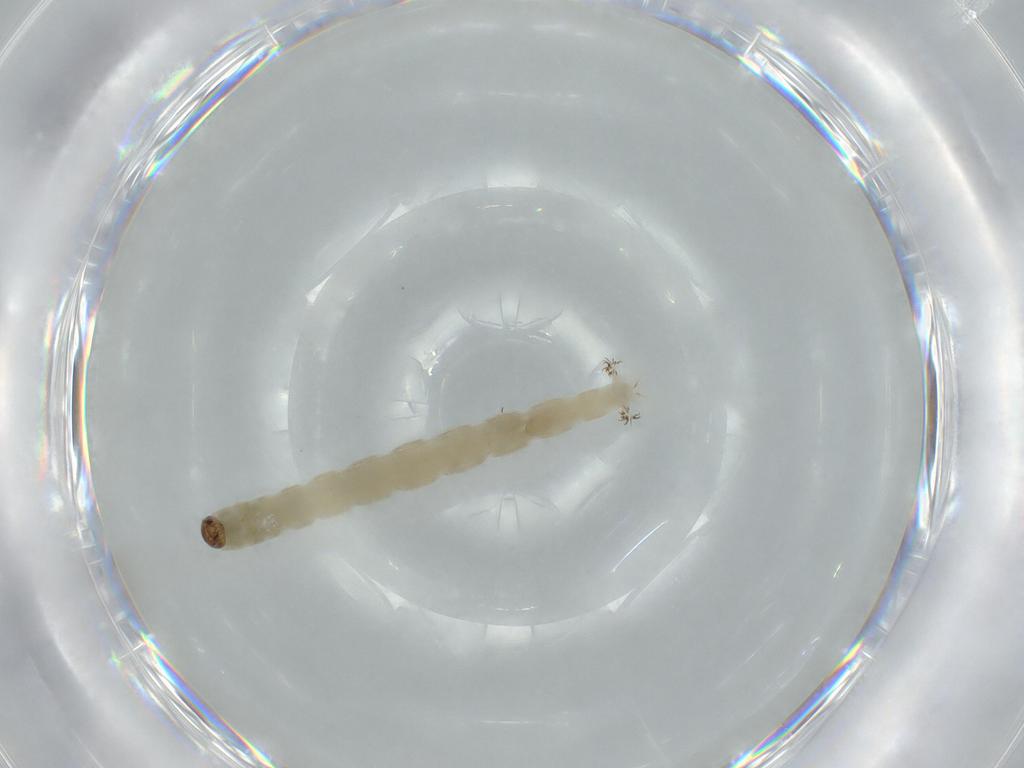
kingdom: Animalia
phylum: Arthropoda
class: Insecta
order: Diptera
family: Chironomidae
